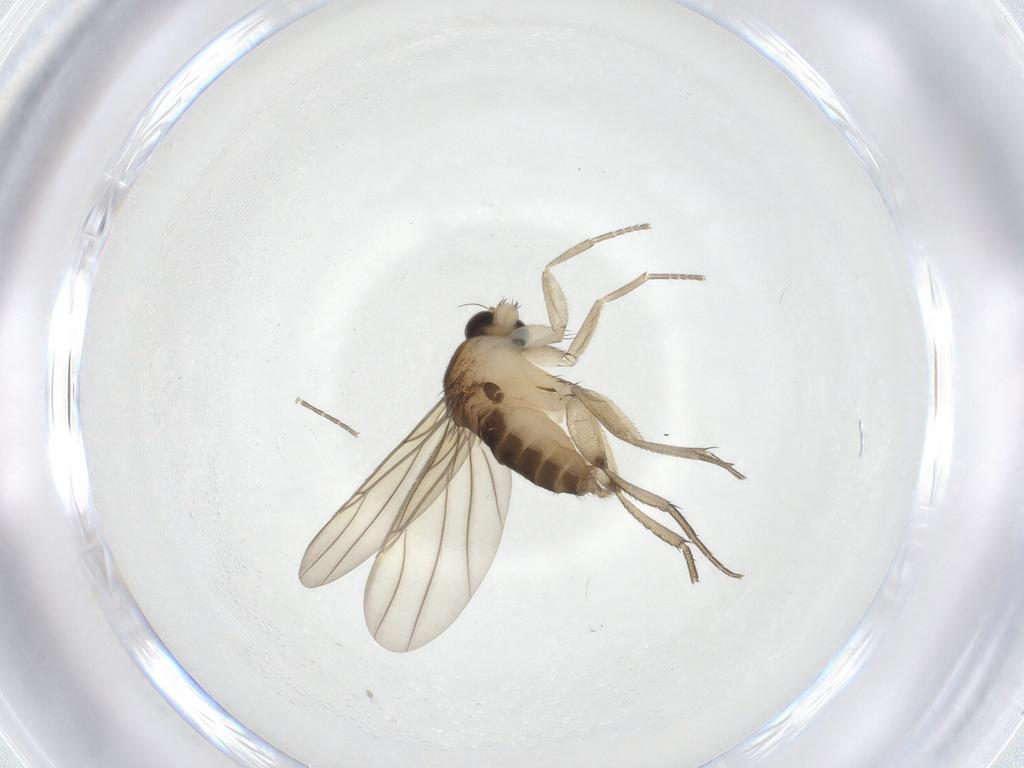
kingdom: Animalia
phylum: Arthropoda
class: Insecta
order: Diptera
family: Phoridae
